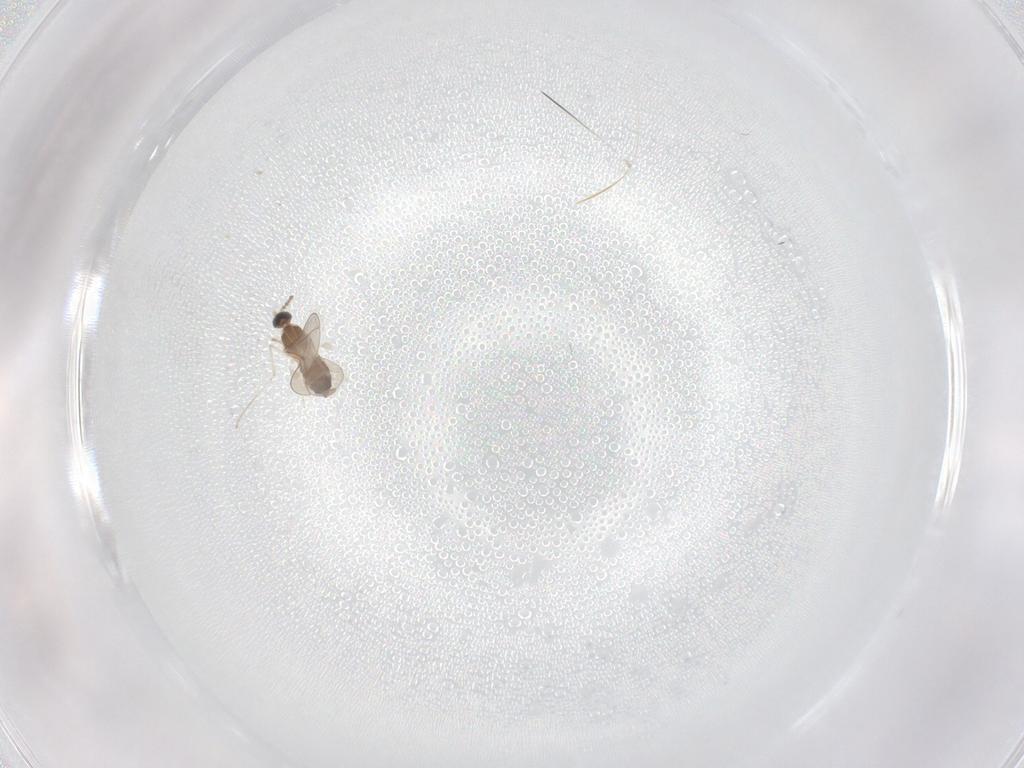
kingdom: Animalia
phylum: Arthropoda
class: Insecta
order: Diptera
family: Cecidomyiidae
